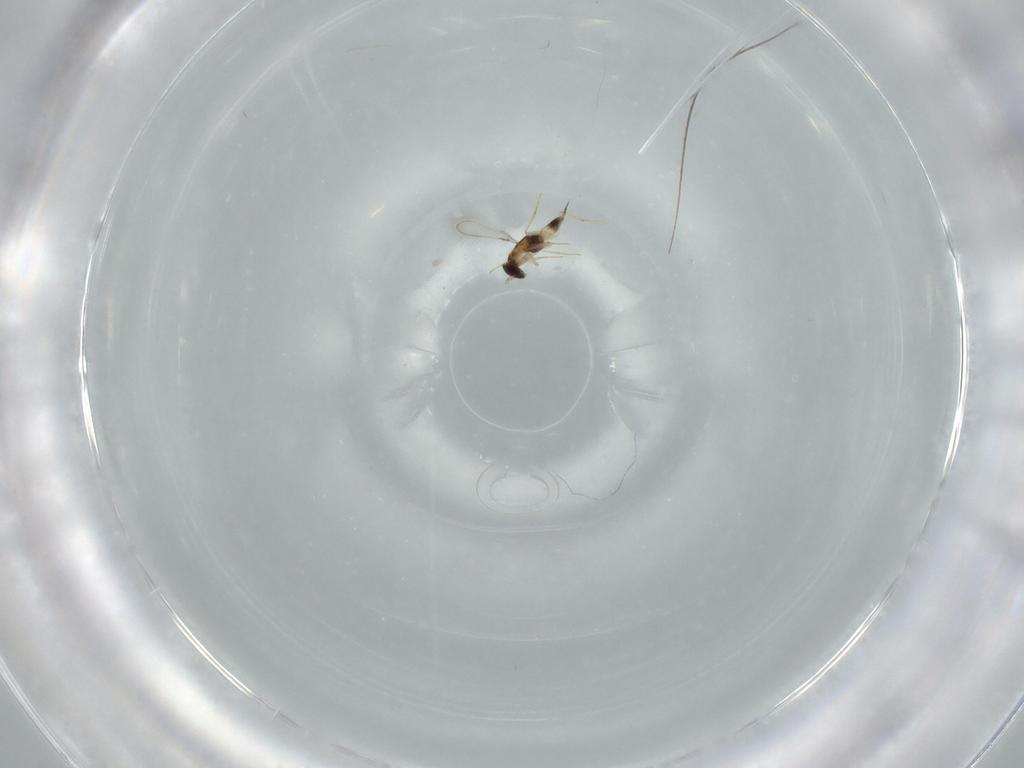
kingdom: Animalia
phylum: Arthropoda
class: Insecta
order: Hymenoptera
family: Mymaridae
